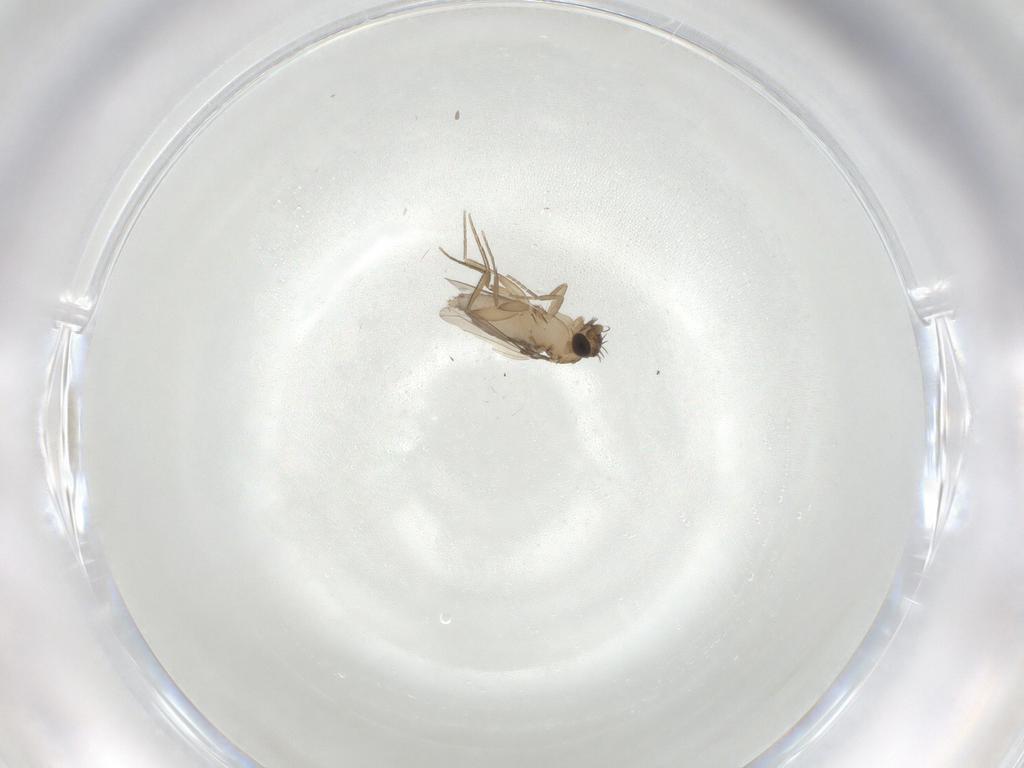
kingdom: Animalia
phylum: Arthropoda
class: Insecta
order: Diptera
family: Phoridae
